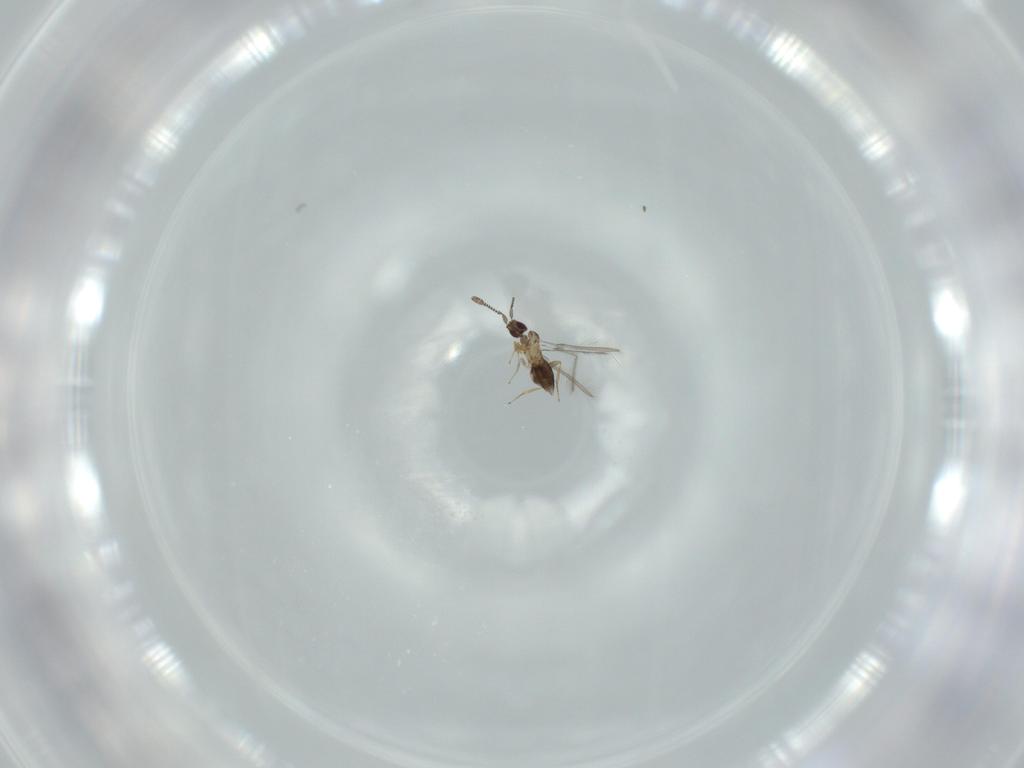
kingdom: Animalia
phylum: Arthropoda
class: Insecta
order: Hymenoptera
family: Mymaridae
